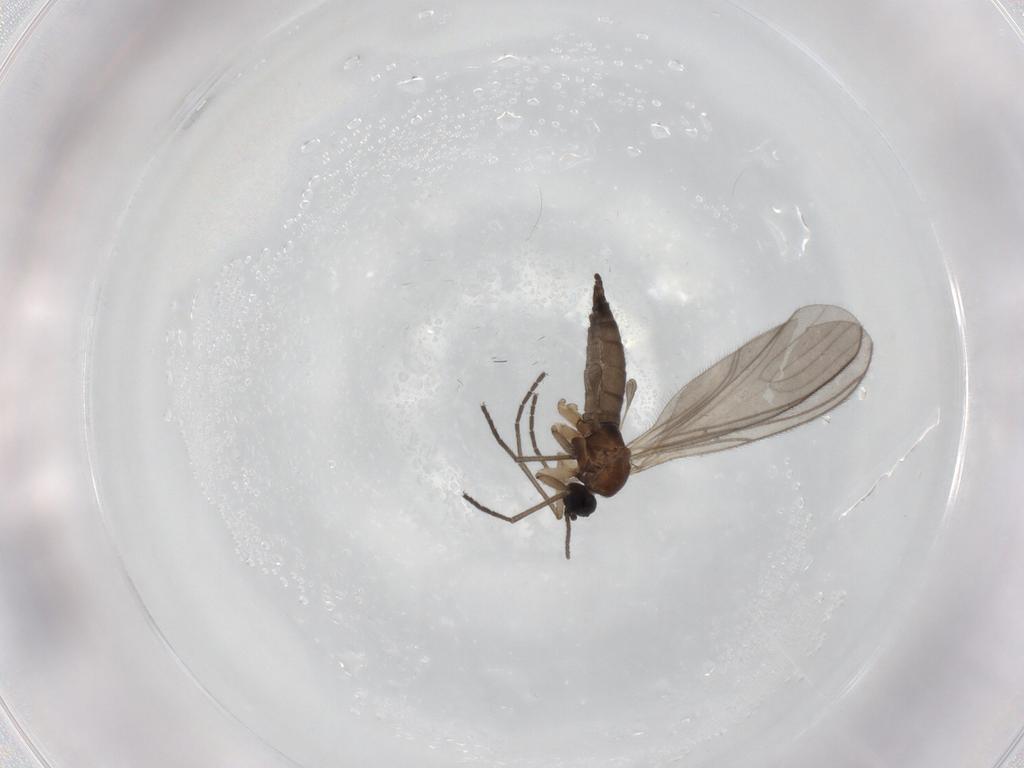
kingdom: Animalia
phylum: Arthropoda
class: Insecta
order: Diptera
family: Sciaridae
